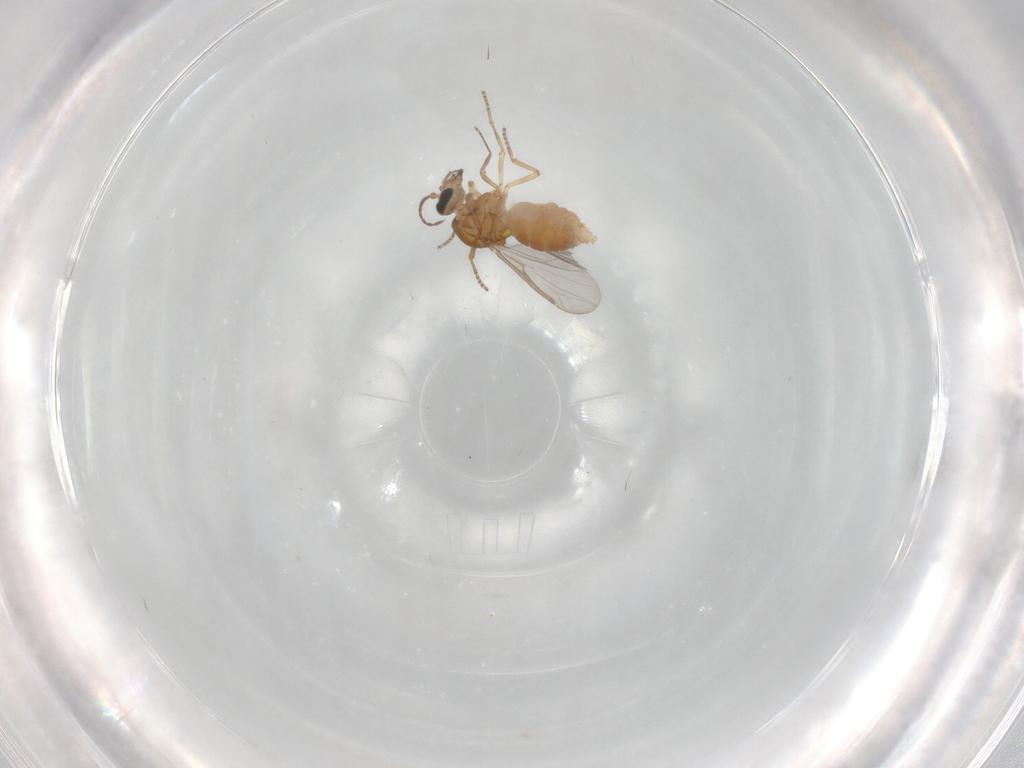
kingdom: Animalia
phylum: Arthropoda
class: Insecta
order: Diptera
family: Ceratopogonidae
